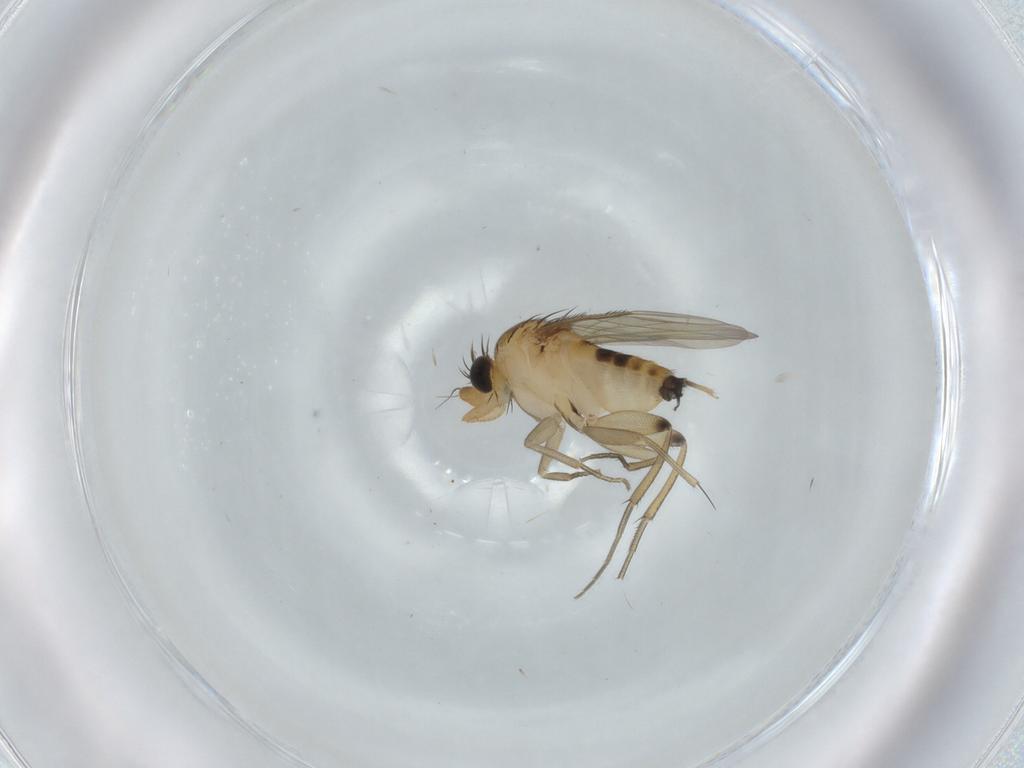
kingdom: Animalia
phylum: Arthropoda
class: Insecta
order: Diptera
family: Phoridae
